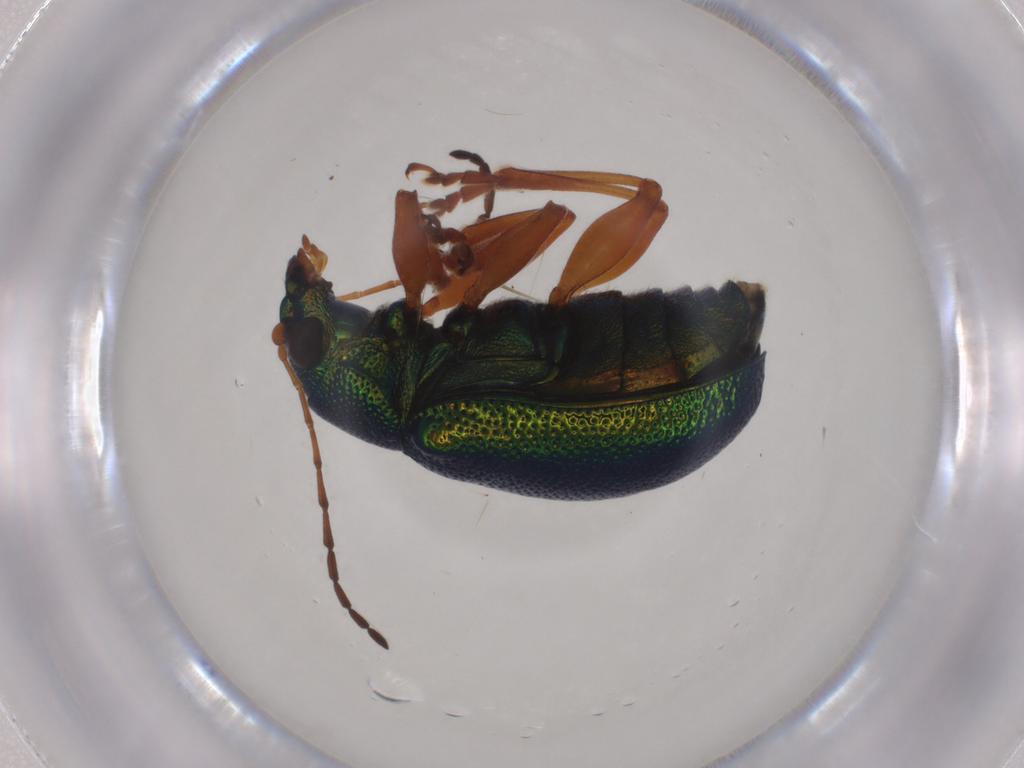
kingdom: Animalia
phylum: Arthropoda
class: Insecta
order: Coleoptera
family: Chrysomelidae
